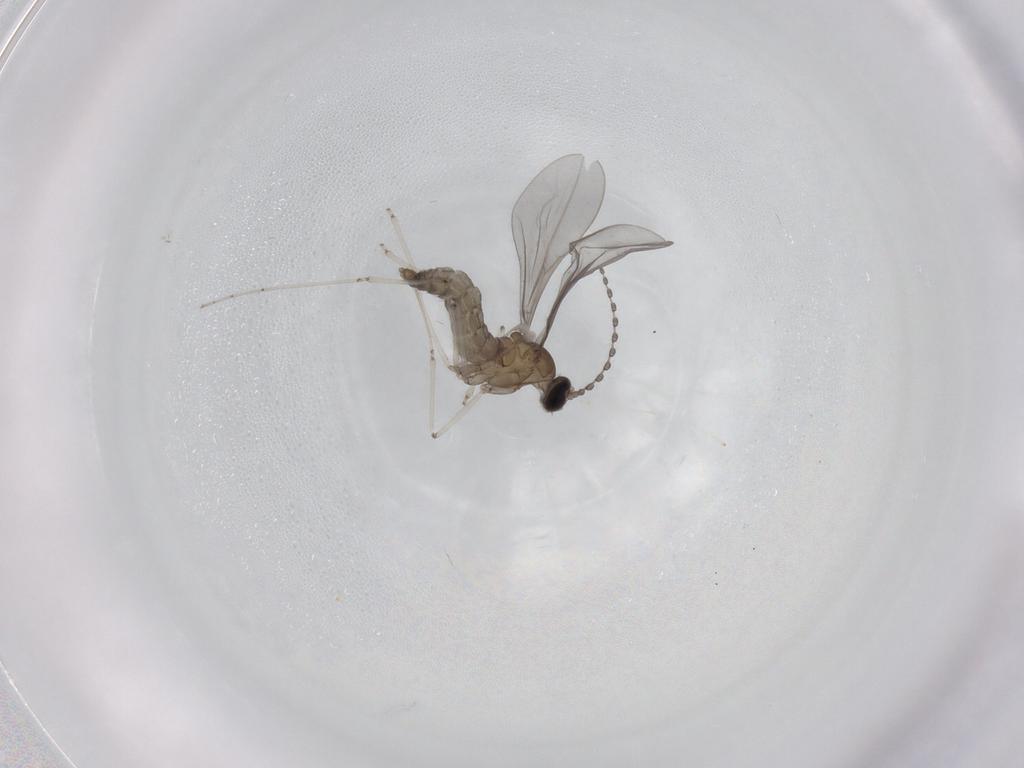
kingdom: Animalia
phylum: Arthropoda
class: Insecta
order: Diptera
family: Cecidomyiidae
